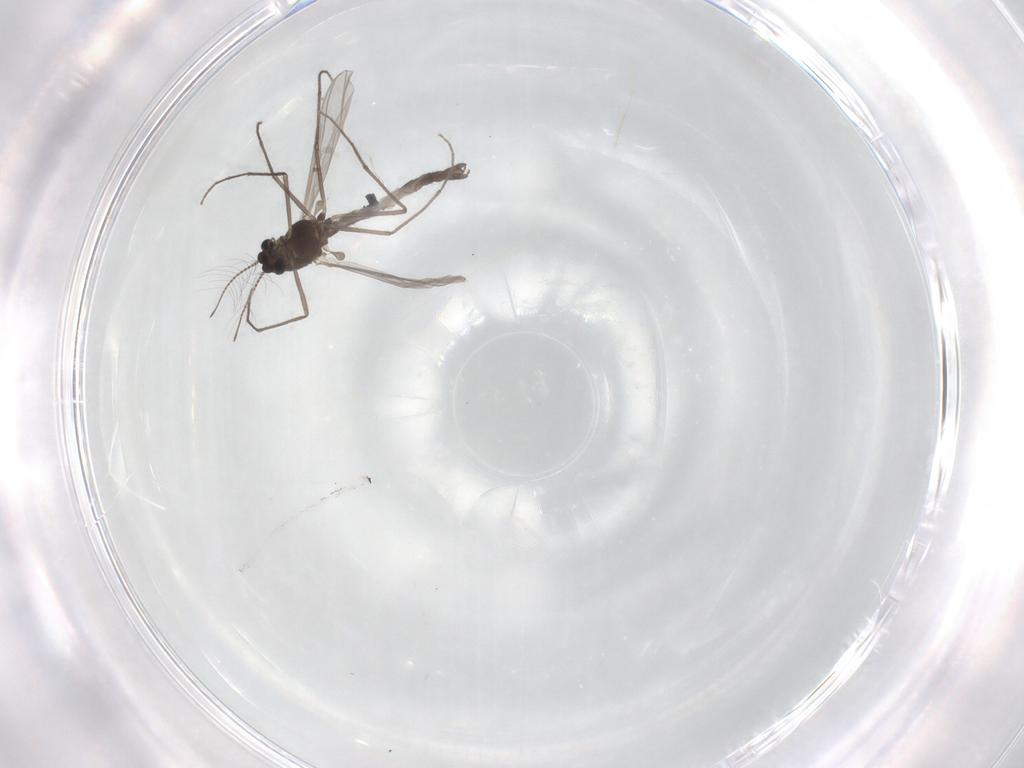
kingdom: Animalia
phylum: Arthropoda
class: Insecta
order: Diptera
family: Chironomidae
